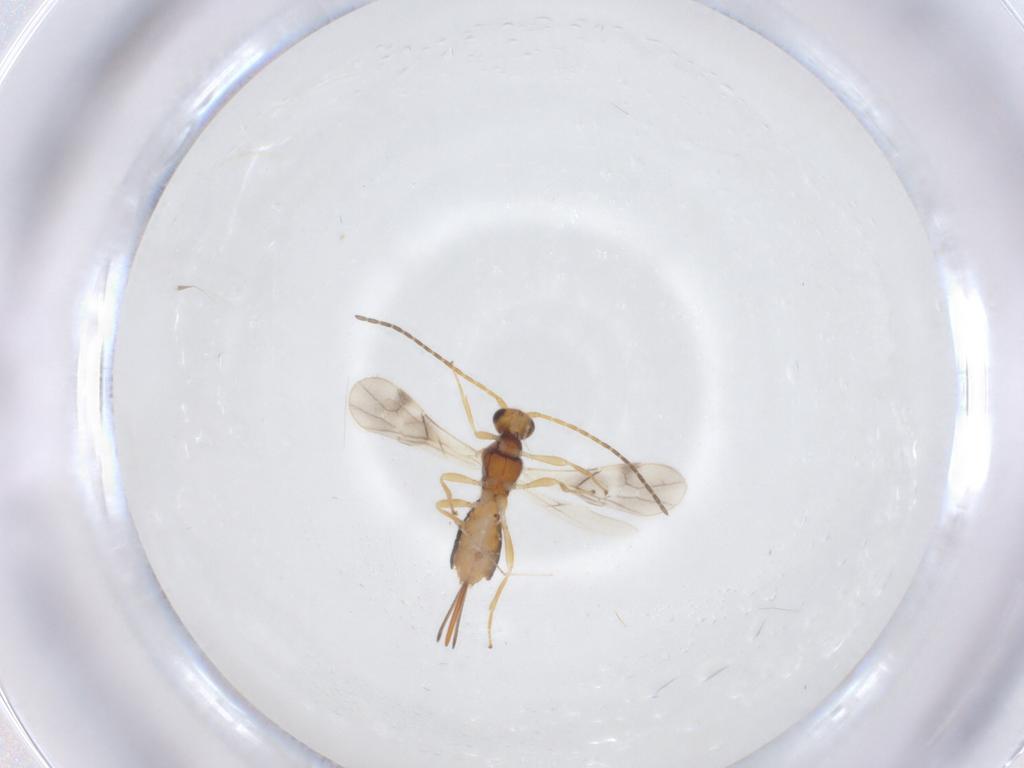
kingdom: Animalia
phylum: Arthropoda
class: Insecta
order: Hymenoptera
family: Braconidae
